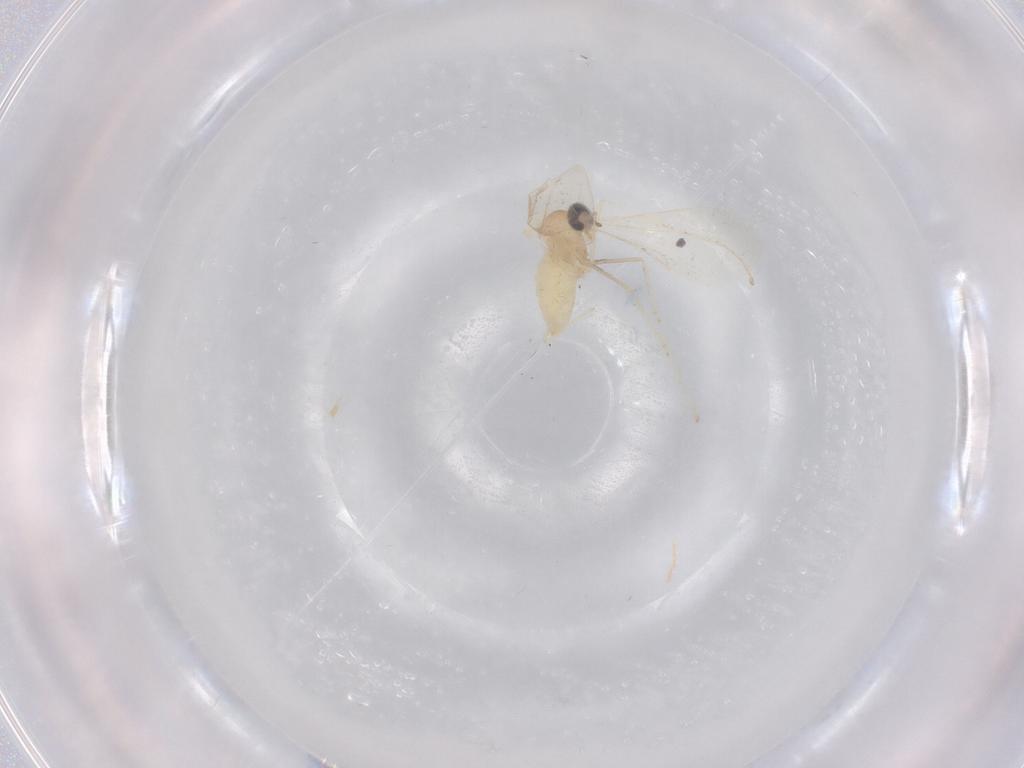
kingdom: Animalia
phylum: Arthropoda
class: Insecta
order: Diptera
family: Cecidomyiidae
